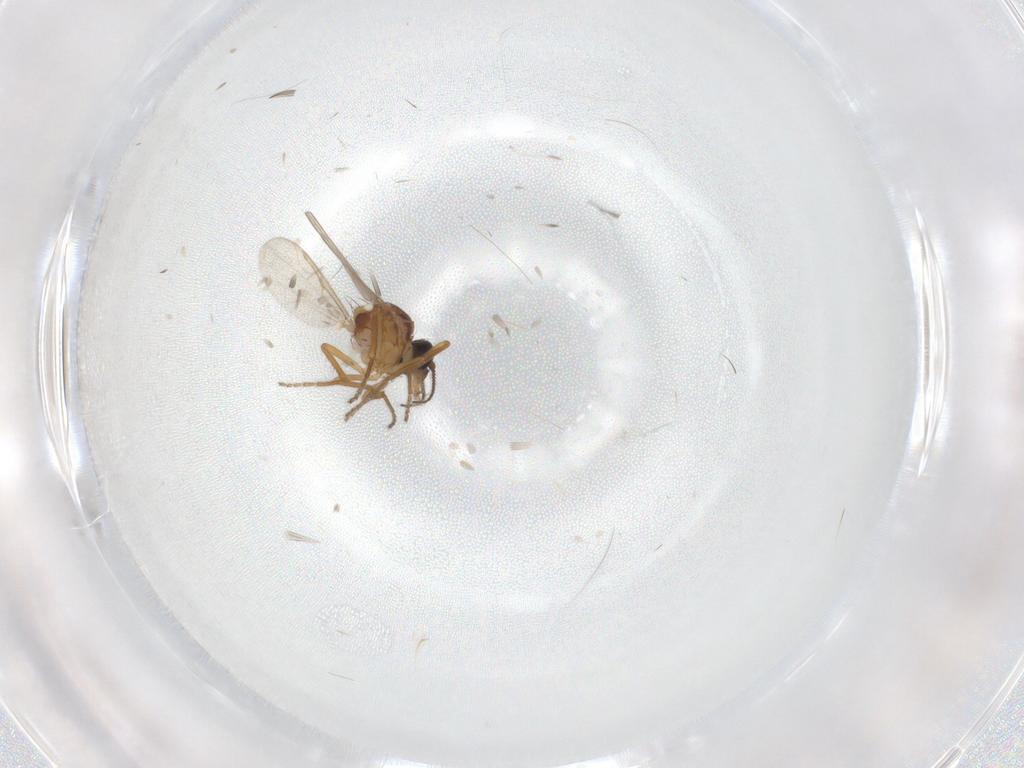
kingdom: Animalia
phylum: Arthropoda
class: Insecta
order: Diptera
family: Ceratopogonidae
